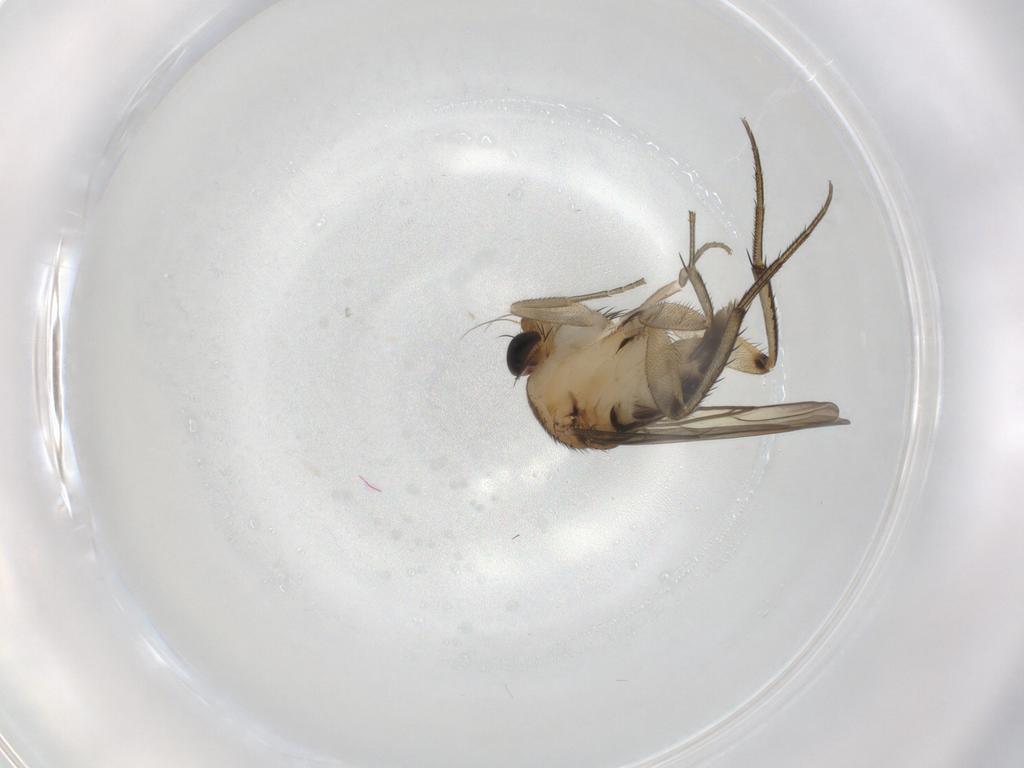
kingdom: Animalia
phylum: Arthropoda
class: Insecta
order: Diptera
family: Phoridae
